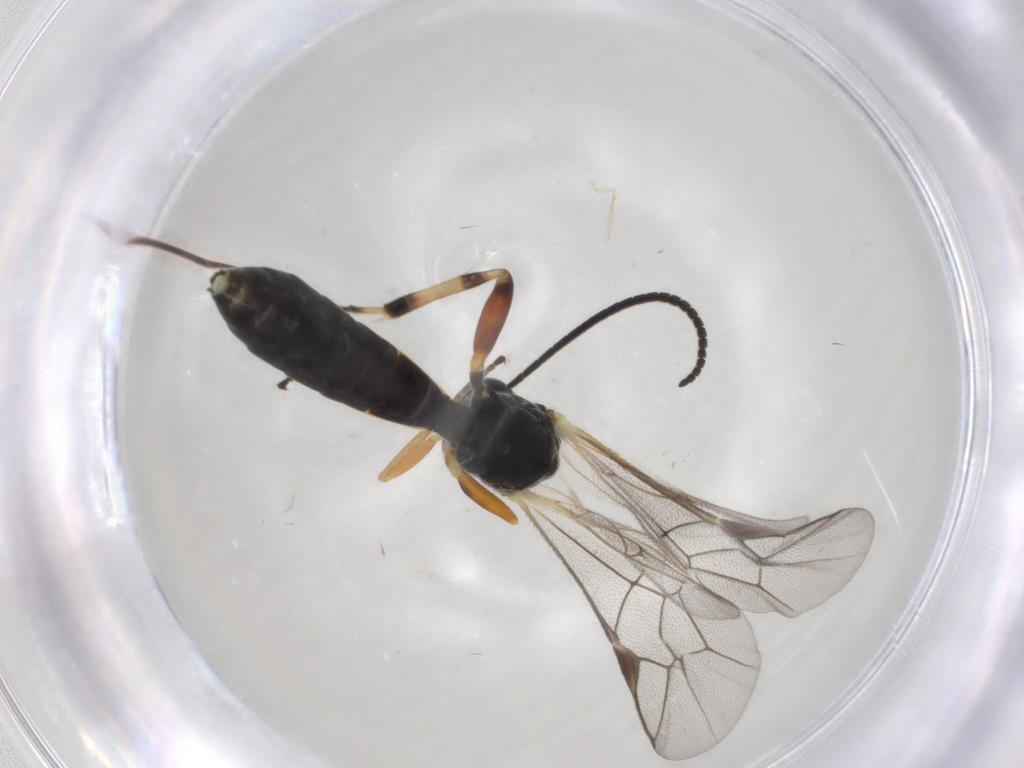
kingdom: Animalia
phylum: Arthropoda
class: Insecta
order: Hymenoptera
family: Ichneumonidae
